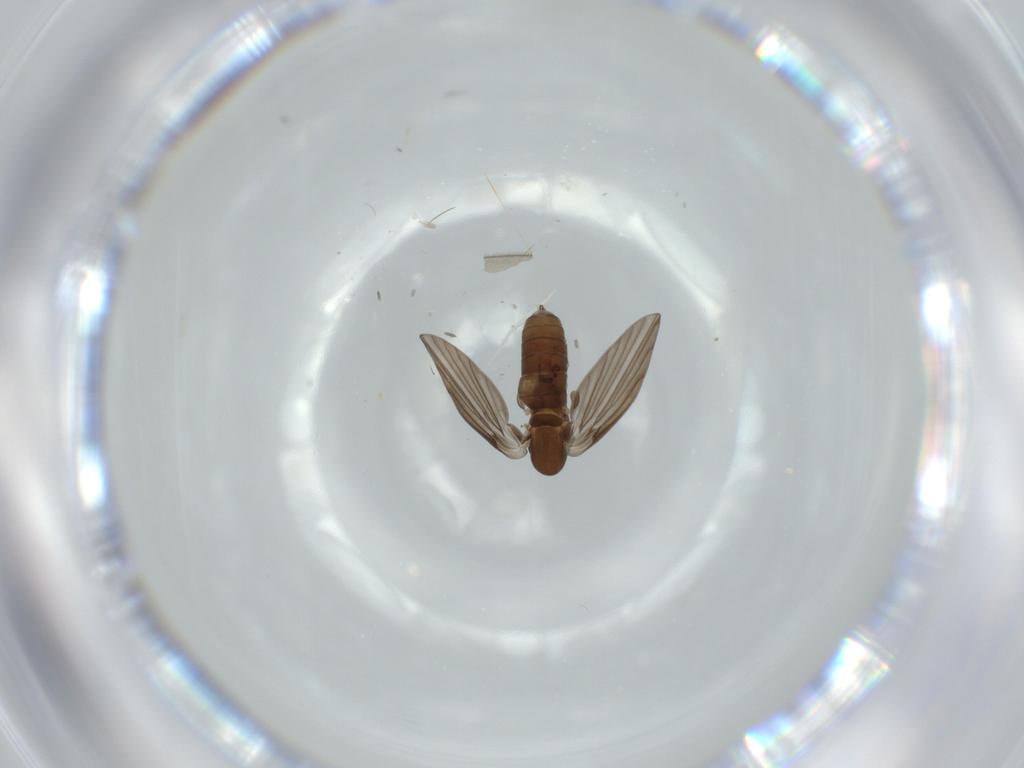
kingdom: Animalia
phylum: Arthropoda
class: Insecta
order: Diptera
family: Psychodidae
